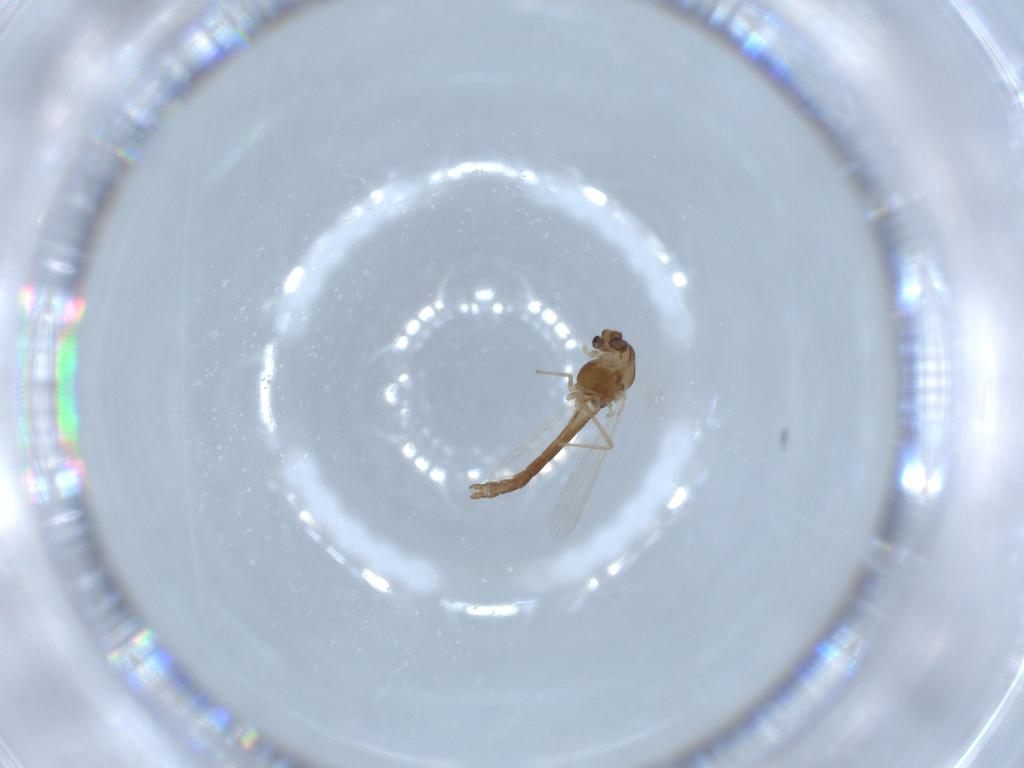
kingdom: Animalia
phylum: Arthropoda
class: Insecta
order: Diptera
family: Chironomidae
